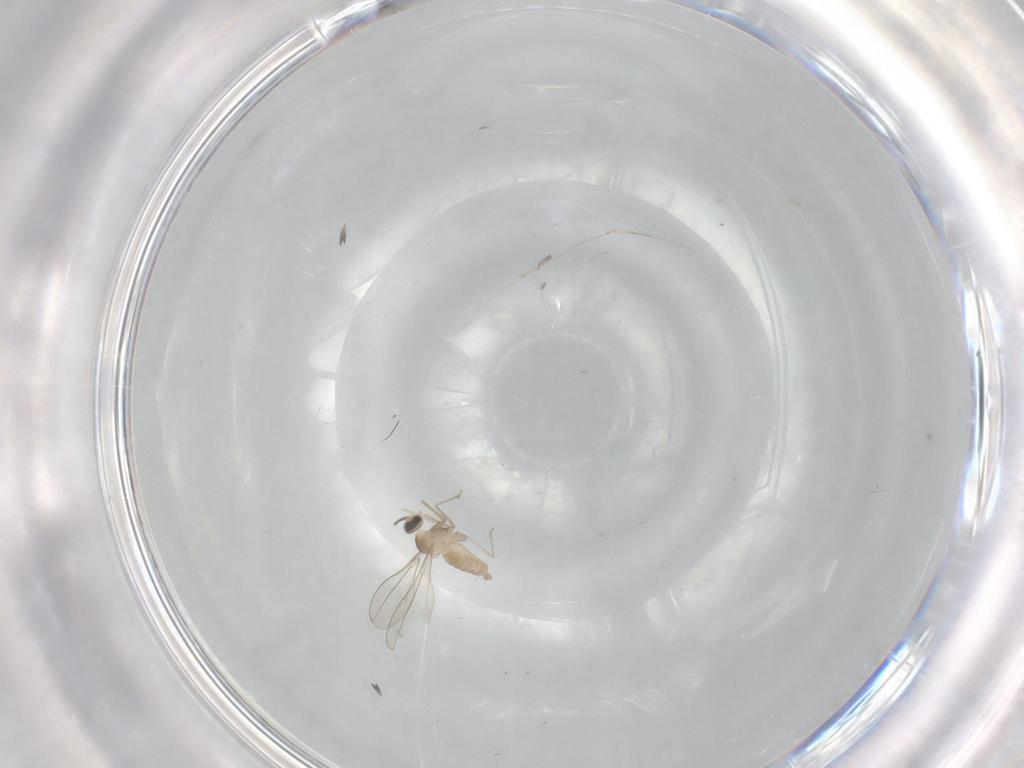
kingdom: Animalia
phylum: Arthropoda
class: Insecta
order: Diptera
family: Cecidomyiidae
